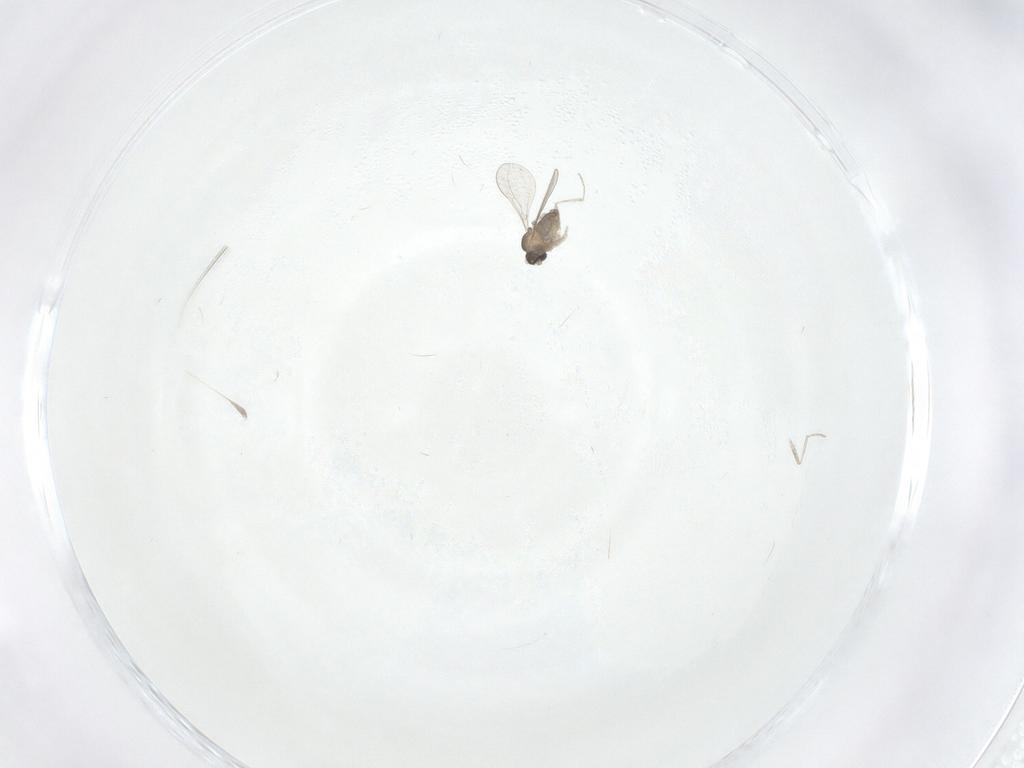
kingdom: Animalia
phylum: Arthropoda
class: Insecta
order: Diptera
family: Cecidomyiidae
